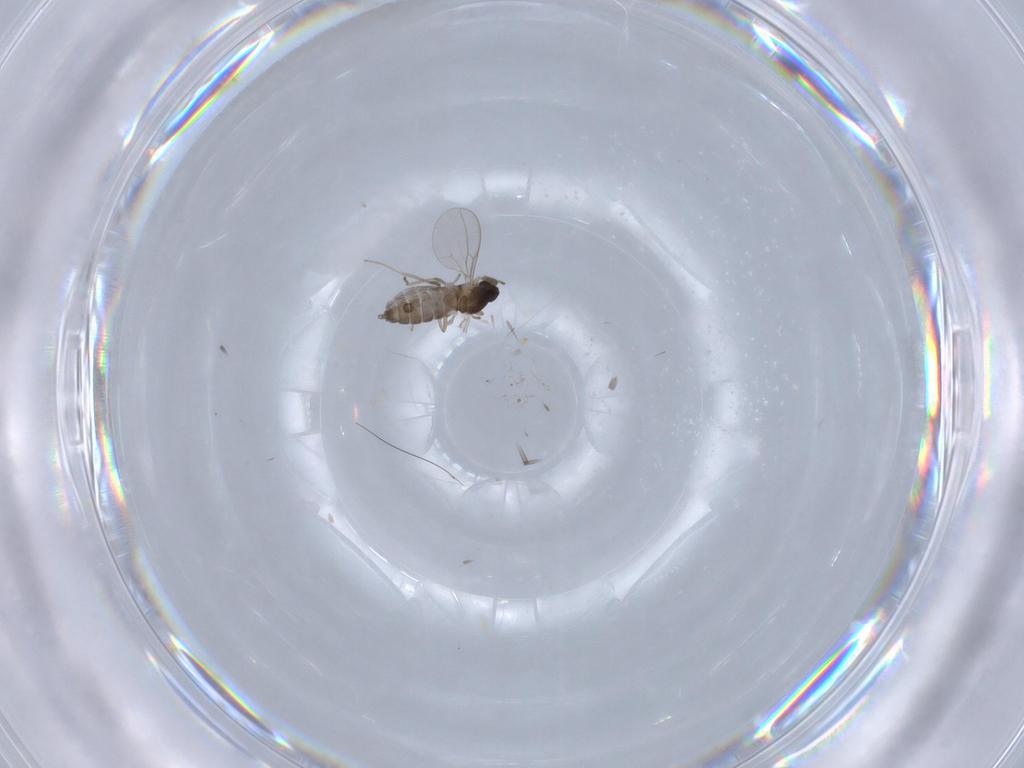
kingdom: Animalia
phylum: Arthropoda
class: Insecta
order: Diptera
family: Cecidomyiidae
